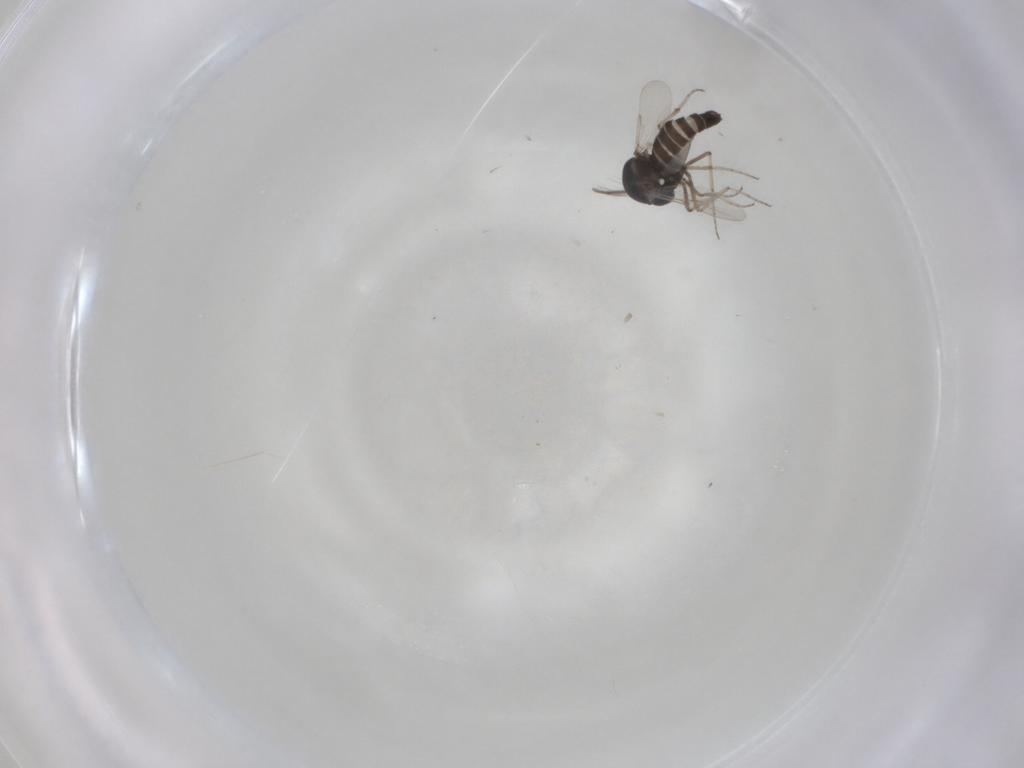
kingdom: Animalia
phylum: Arthropoda
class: Insecta
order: Diptera
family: Ceratopogonidae
